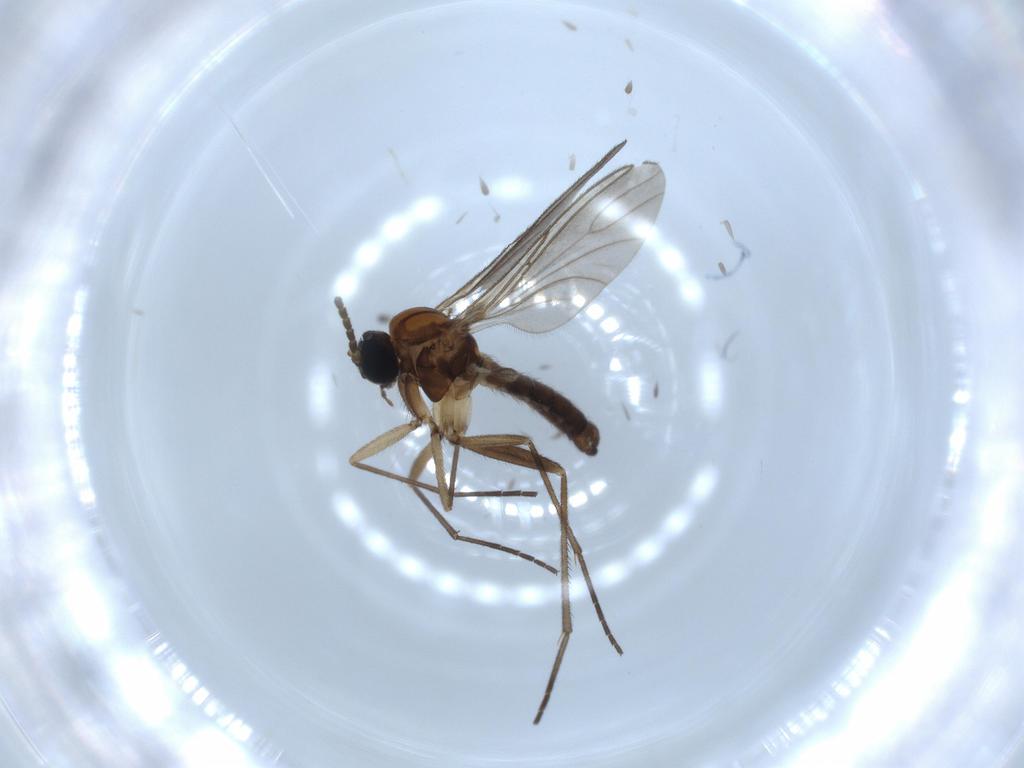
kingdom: Animalia
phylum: Arthropoda
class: Insecta
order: Diptera
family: Sciaridae
